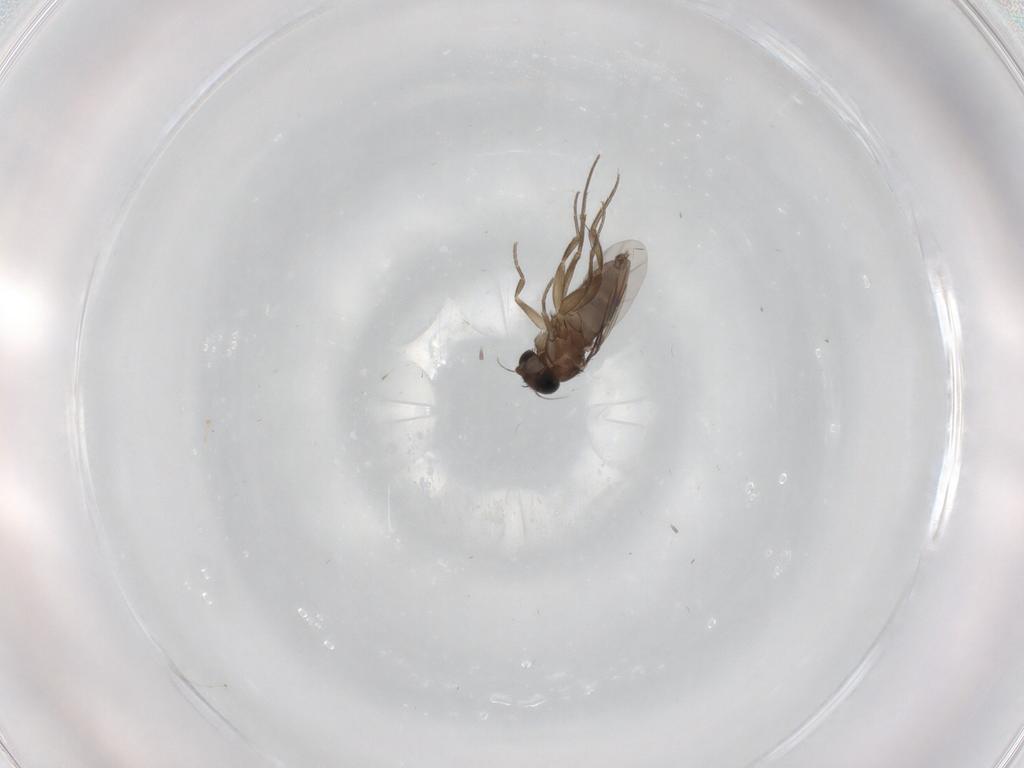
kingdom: Animalia
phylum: Arthropoda
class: Insecta
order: Diptera
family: Phoridae
